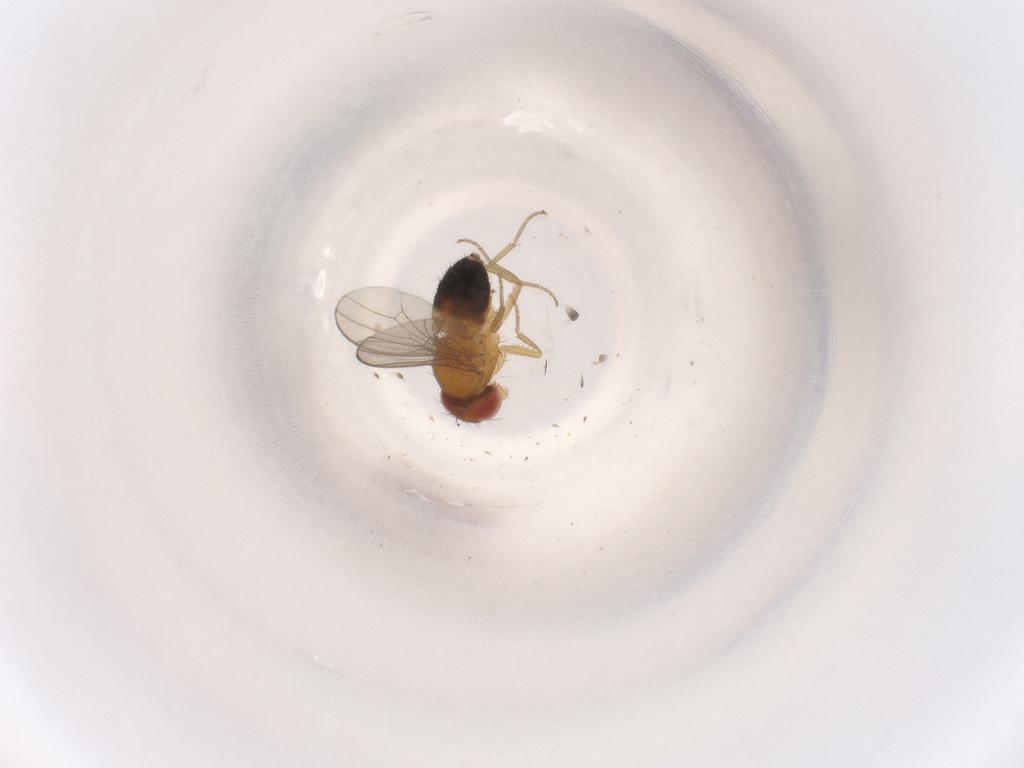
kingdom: Animalia
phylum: Arthropoda
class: Insecta
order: Diptera
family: Drosophilidae
